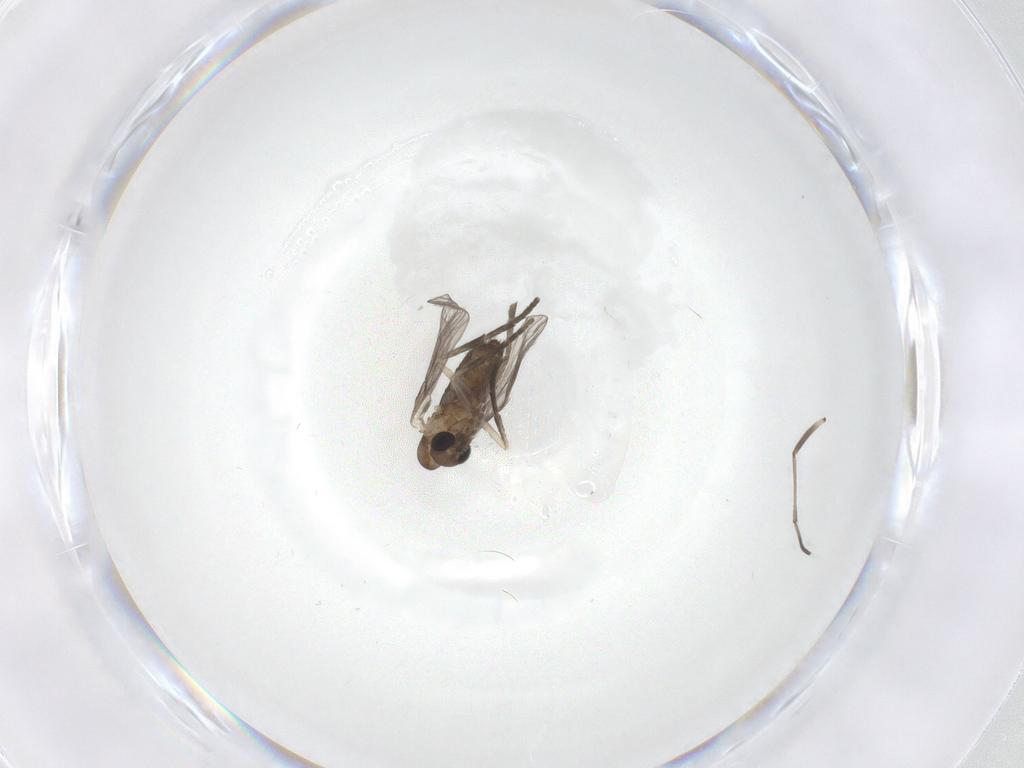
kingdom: Animalia
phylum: Arthropoda
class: Insecta
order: Diptera
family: Psychodidae
